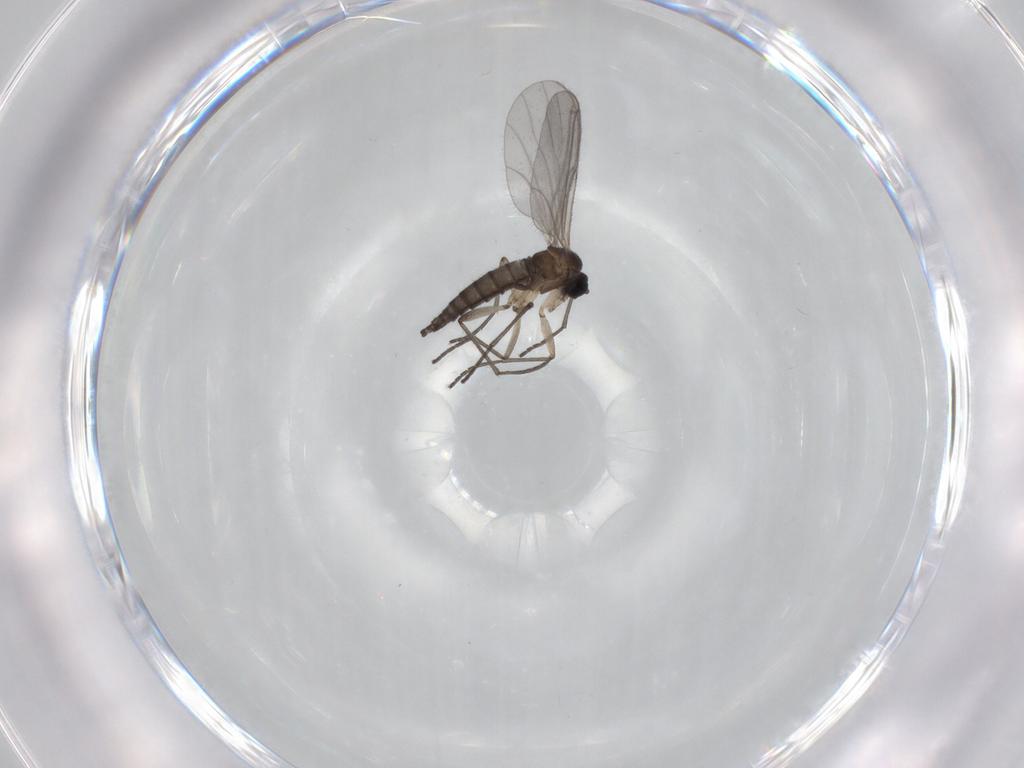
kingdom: Animalia
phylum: Arthropoda
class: Insecta
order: Diptera
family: Sciaridae
